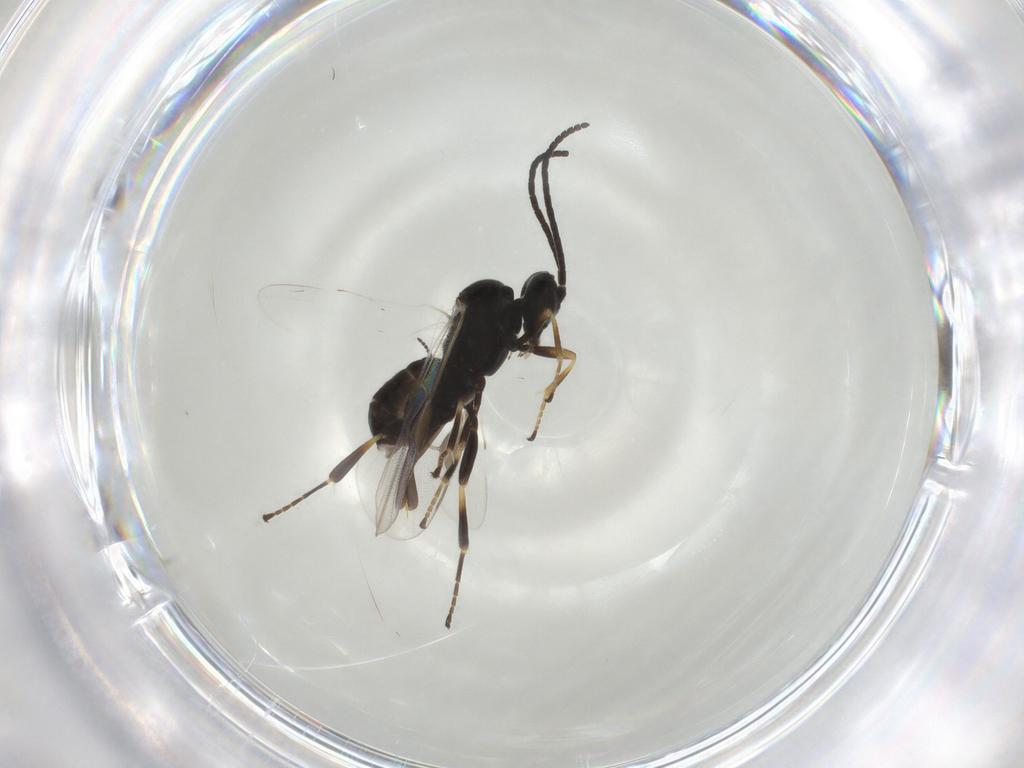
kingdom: Animalia
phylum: Arthropoda
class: Insecta
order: Hymenoptera
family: Braconidae
